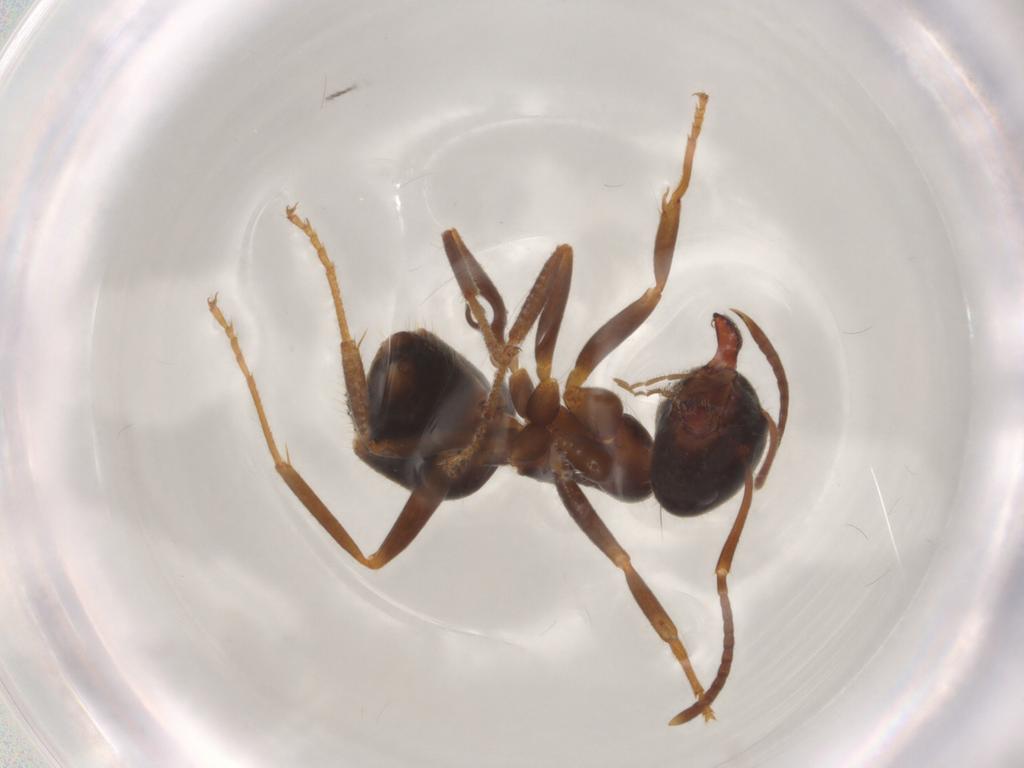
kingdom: Animalia
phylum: Arthropoda
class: Insecta
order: Hymenoptera
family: Formicidae
